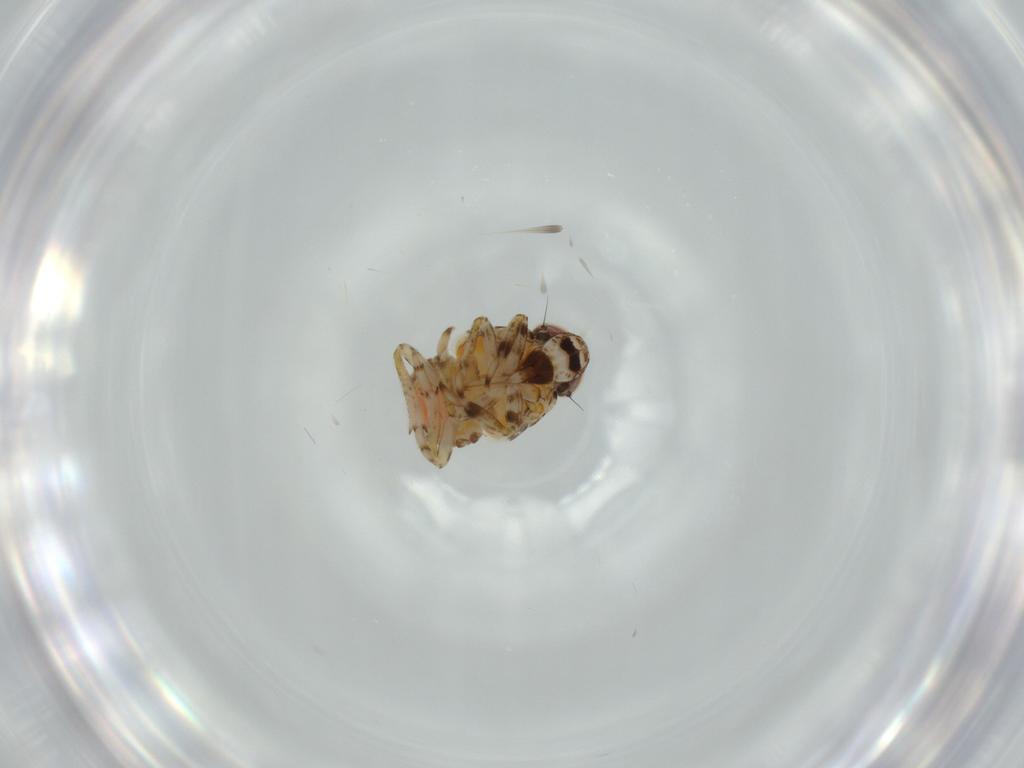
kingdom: Animalia
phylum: Arthropoda
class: Insecta
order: Hemiptera
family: Issidae
